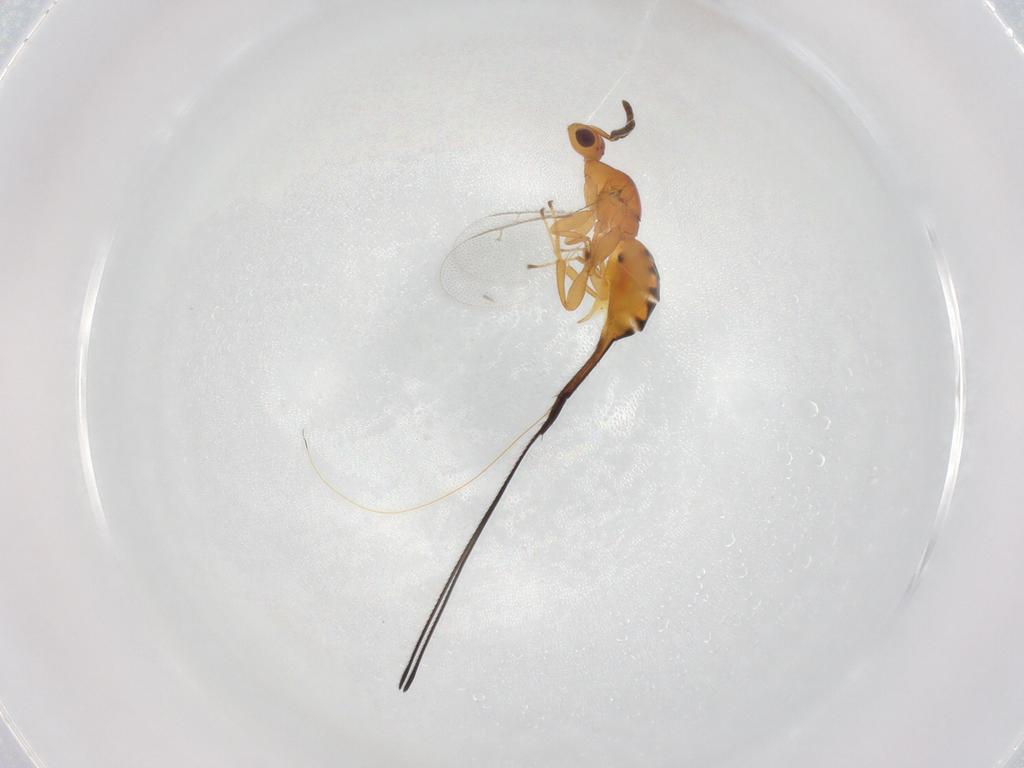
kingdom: Animalia
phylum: Arthropoda
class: Insecta
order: Hymenoptera
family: Pteromalidae
